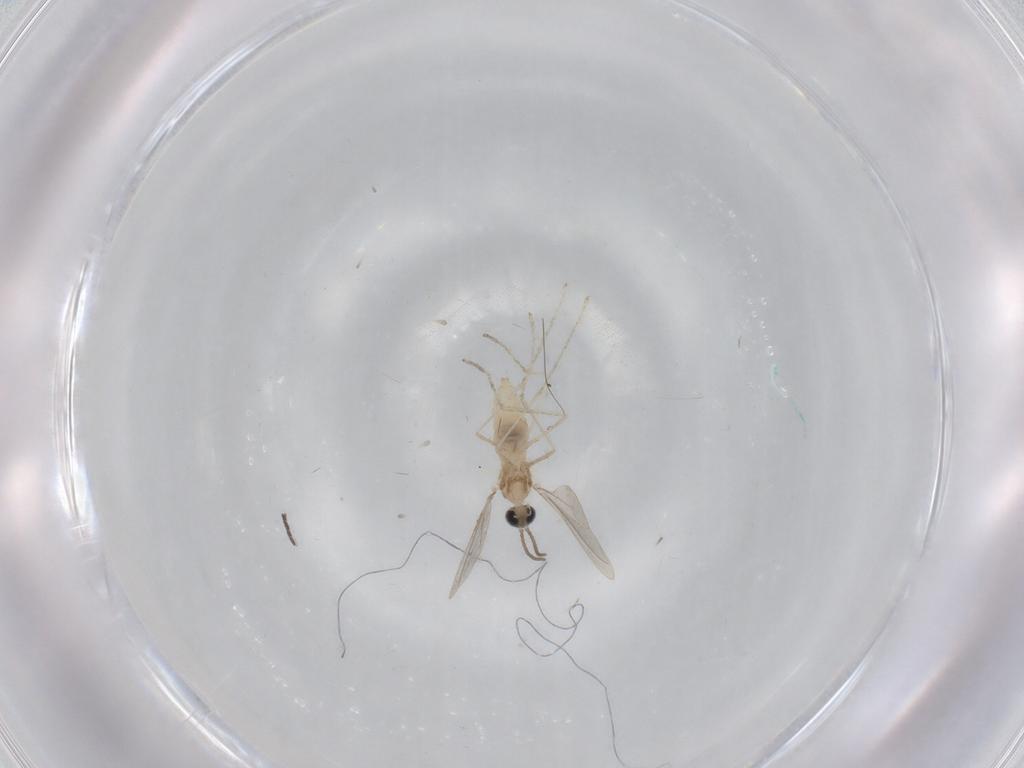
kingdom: Animalia
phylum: Arthropoda
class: Insecta
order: Diptera
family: Cecidomyiidae
